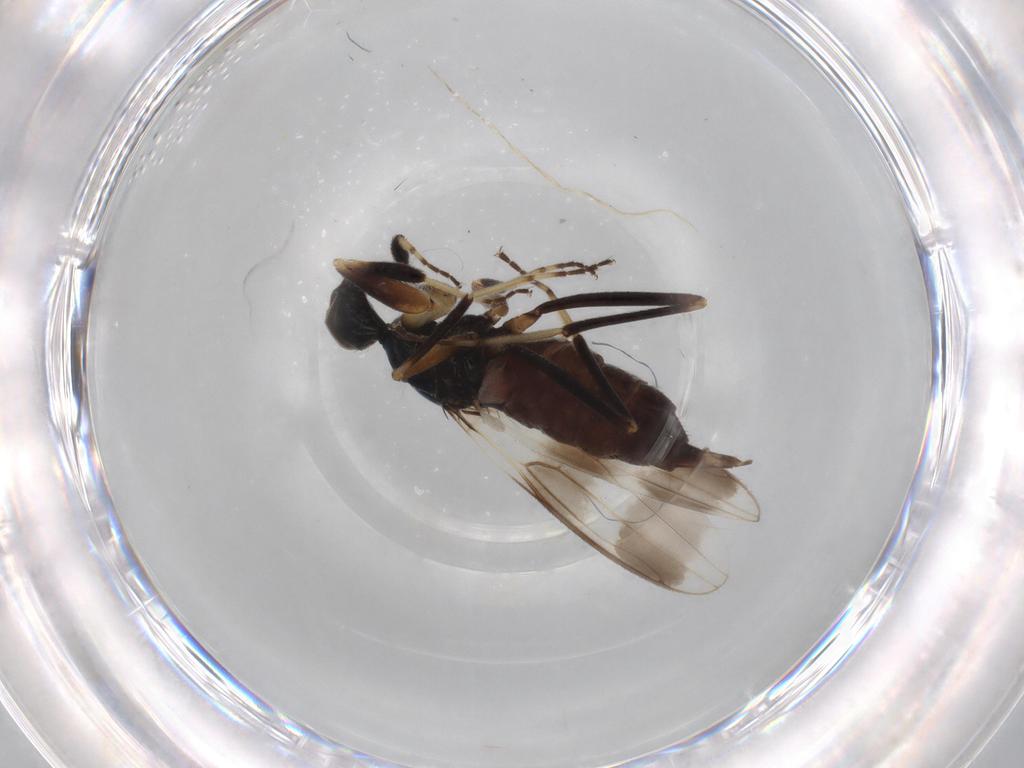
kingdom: Animalia
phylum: Arthropoda
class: Insecta
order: Diptera
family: Hybotidae
